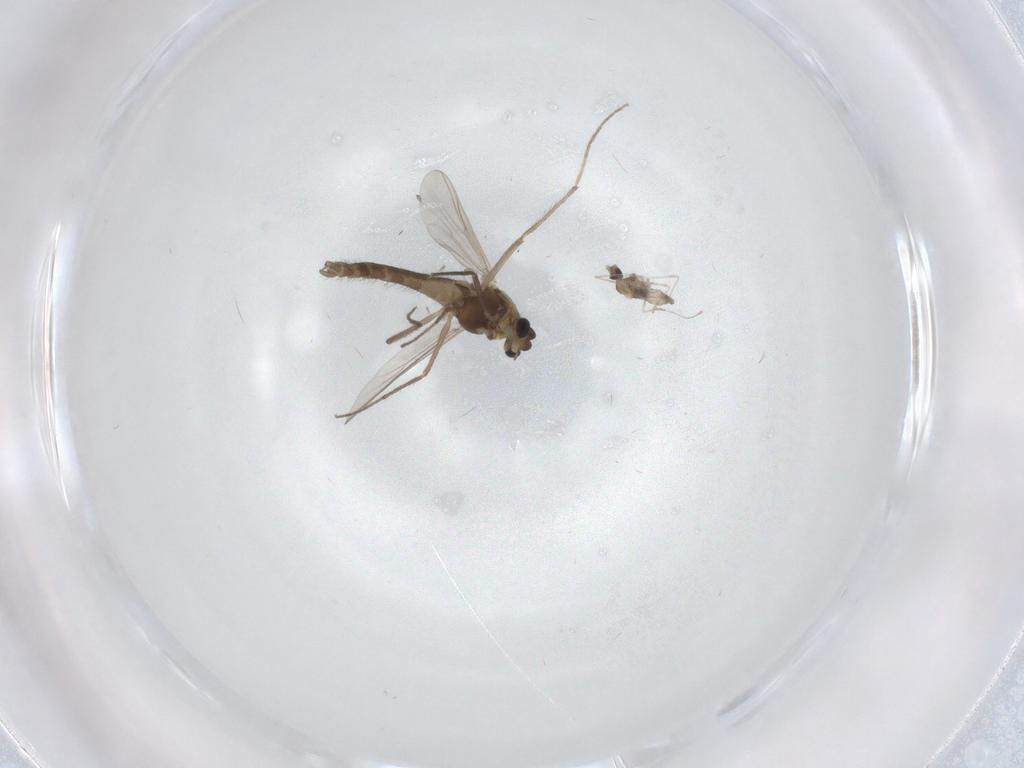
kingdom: Animalia
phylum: Arthropoda
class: Insecta
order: Diptera
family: Chironomidae
